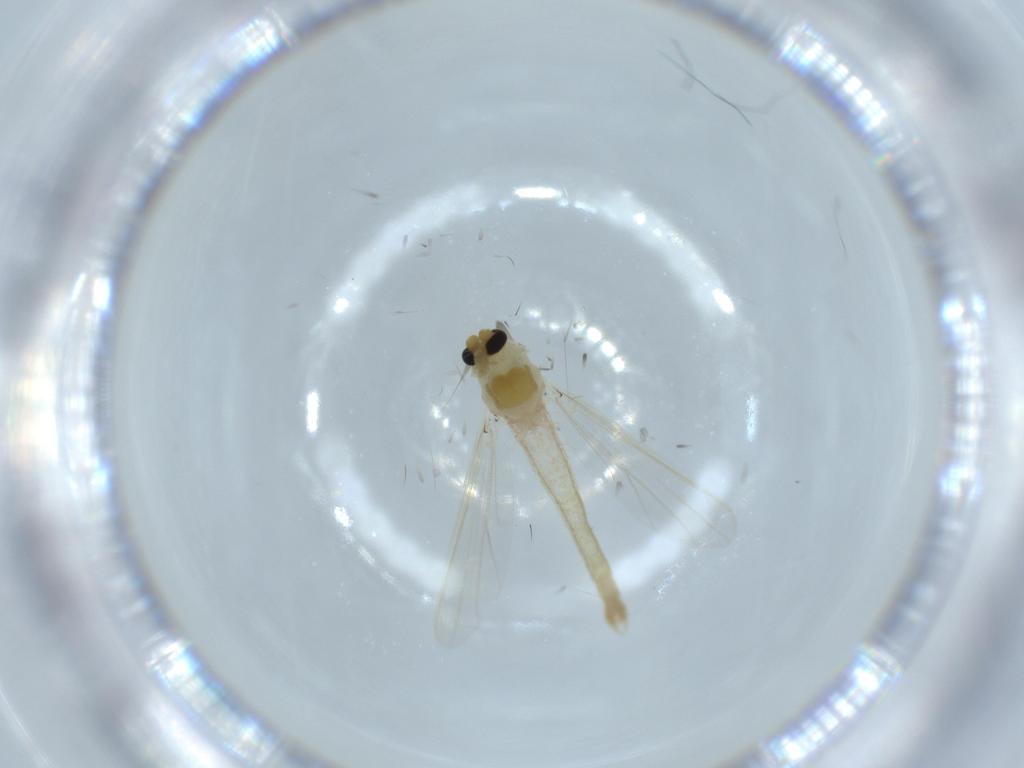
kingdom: Animalia
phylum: Arthropoda
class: Insecta
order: Diptera
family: Chironomidae
